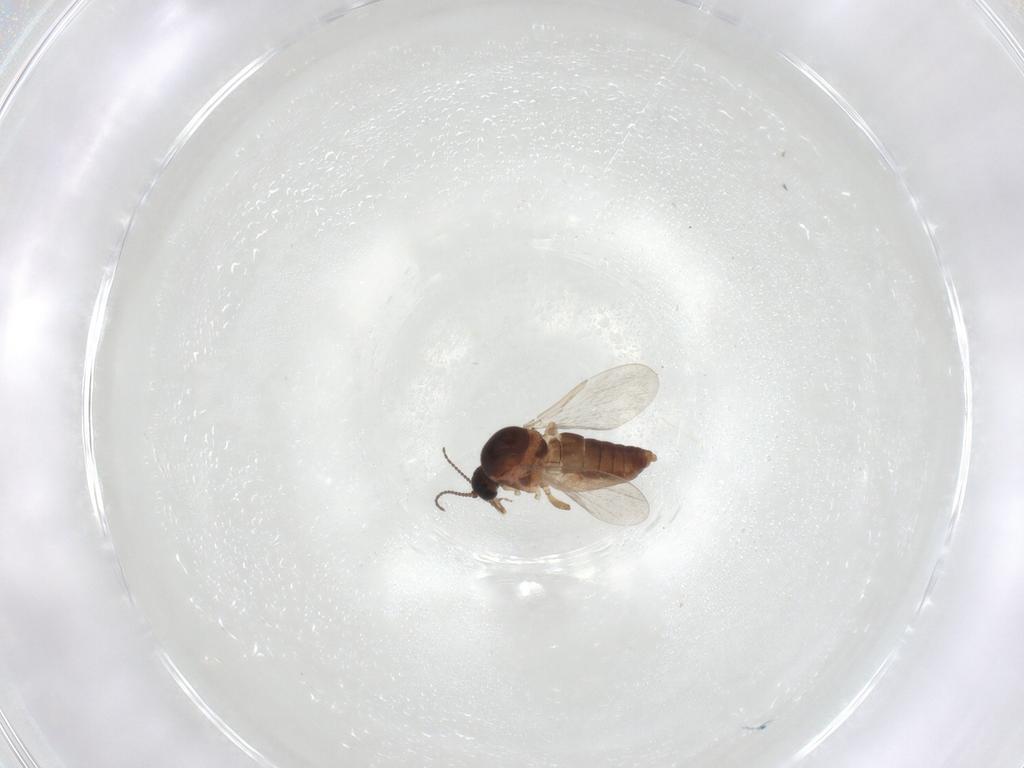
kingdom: Animalia
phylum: Arthropoda
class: Insecta
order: Diptera
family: Ceratopogonidae
